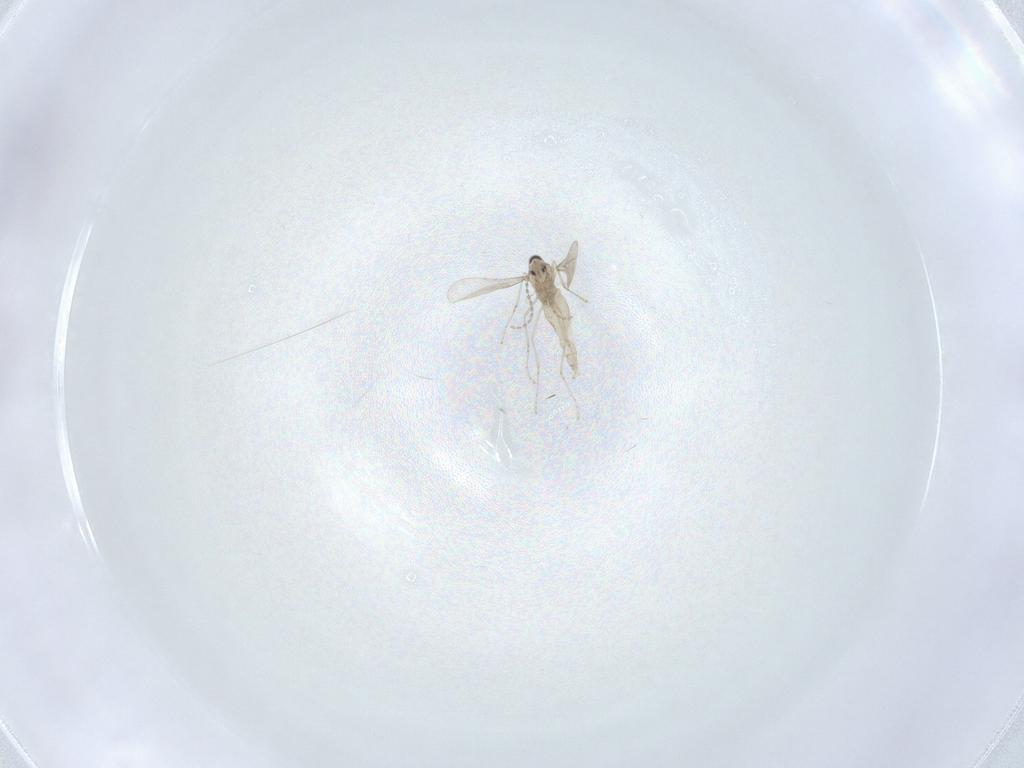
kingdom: Animalia
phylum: Arthropoda
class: Insecta
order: Diptera
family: Cecidomyiidae
